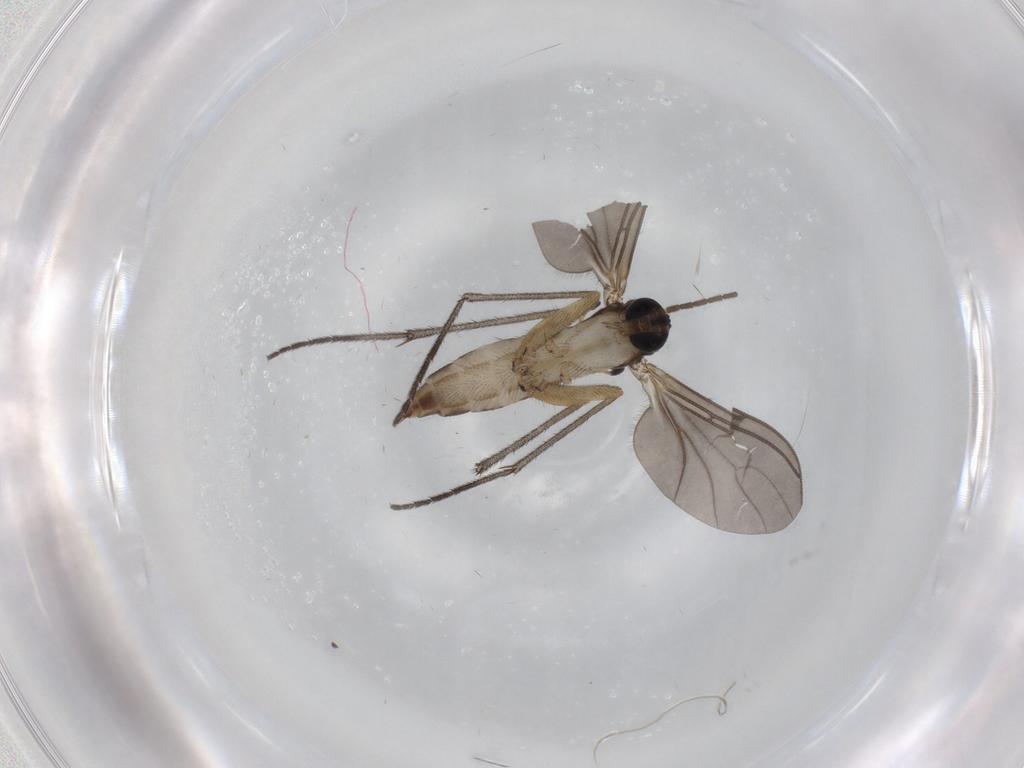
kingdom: Animalia
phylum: Arthropoda
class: Insecta
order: Diptera
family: Sciaridae
